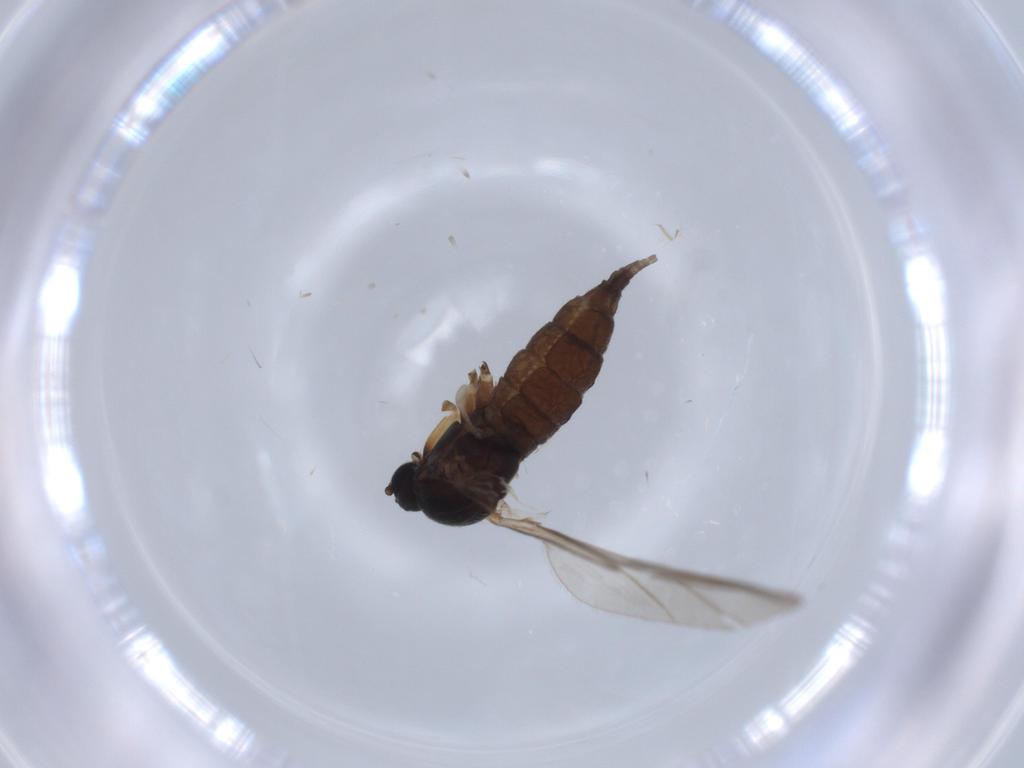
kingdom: Animalia
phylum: Arthropoda
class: Insecta
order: Diptera
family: Sciaridae
